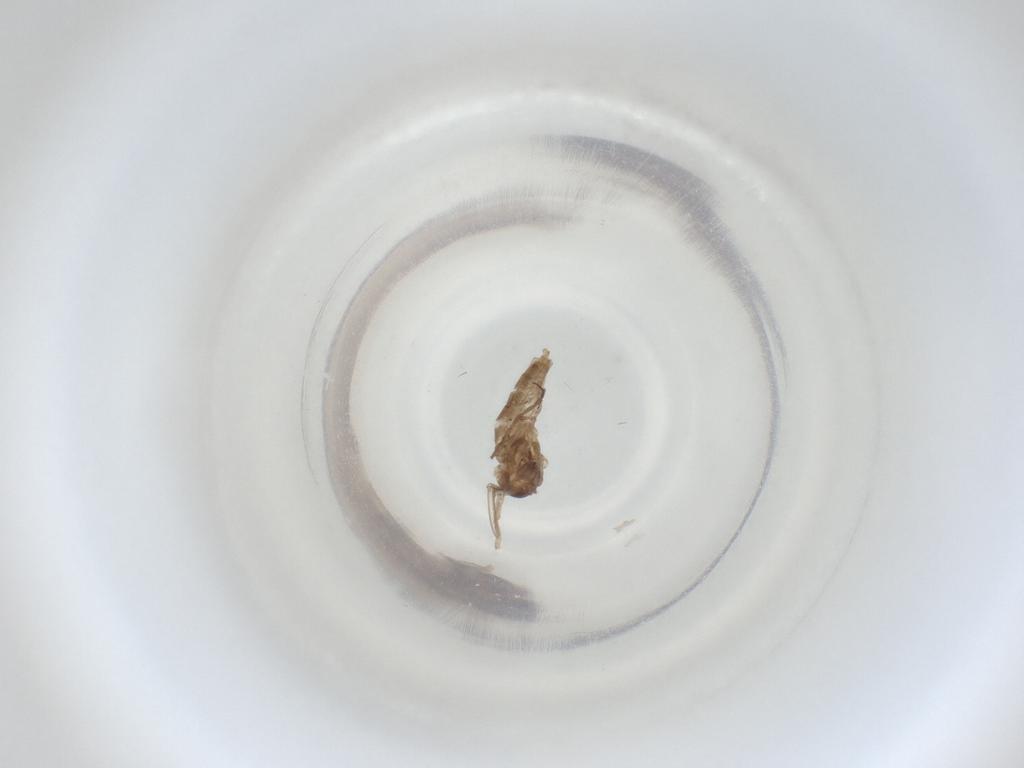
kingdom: Animalia
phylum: Arthropoda
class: Insecta
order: Diptera
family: Cecidomyiidae
